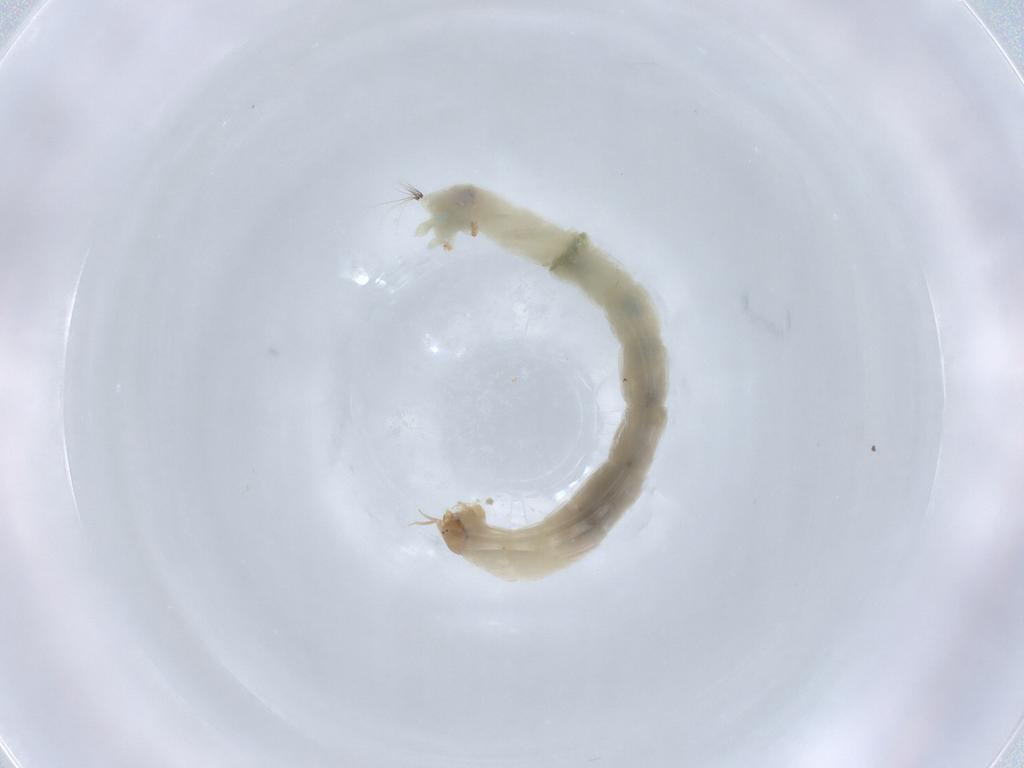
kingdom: Animalia
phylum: Arthropoda
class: Insecta
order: Diptera
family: Chironomidae
